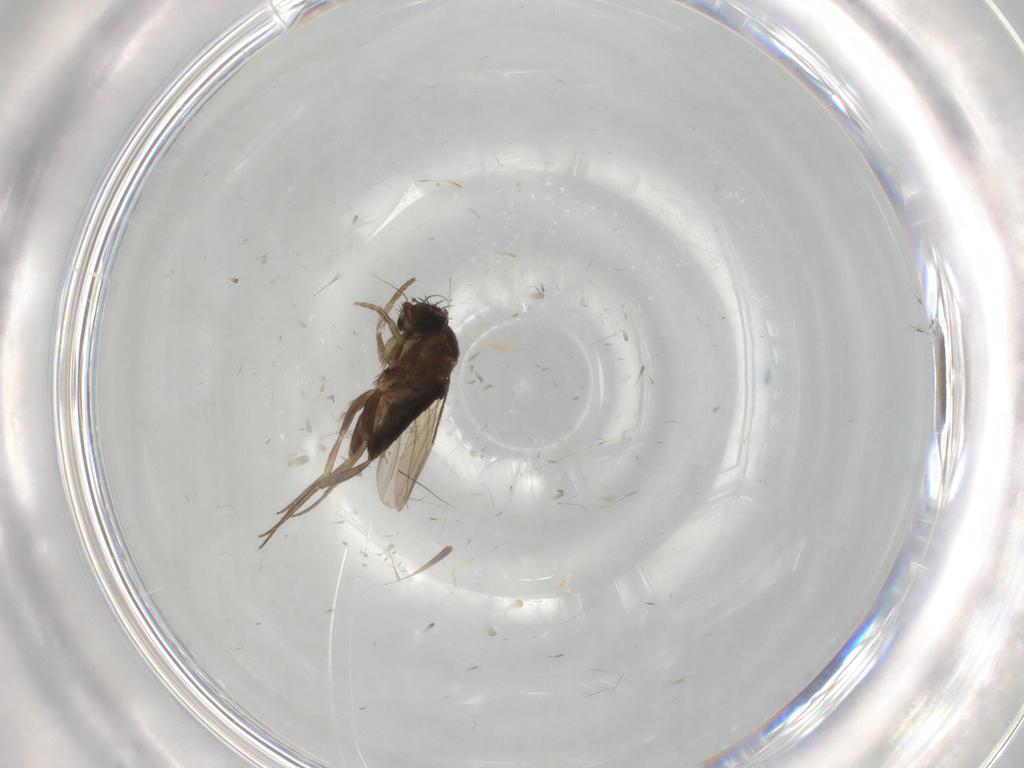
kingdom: Animalia
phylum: Arthropoda
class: Insecta
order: Diptera
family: Phoridae
